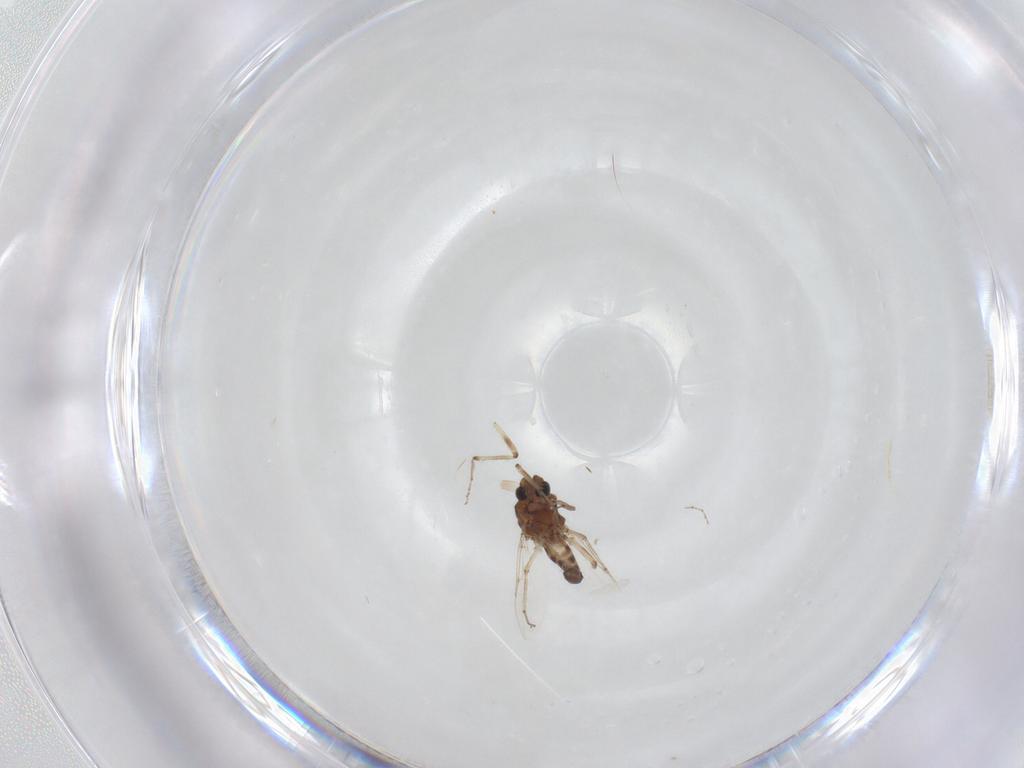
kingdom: Animalia
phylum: Arthropoda
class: Insecta
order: Diptera
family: Ceratopogonidae
